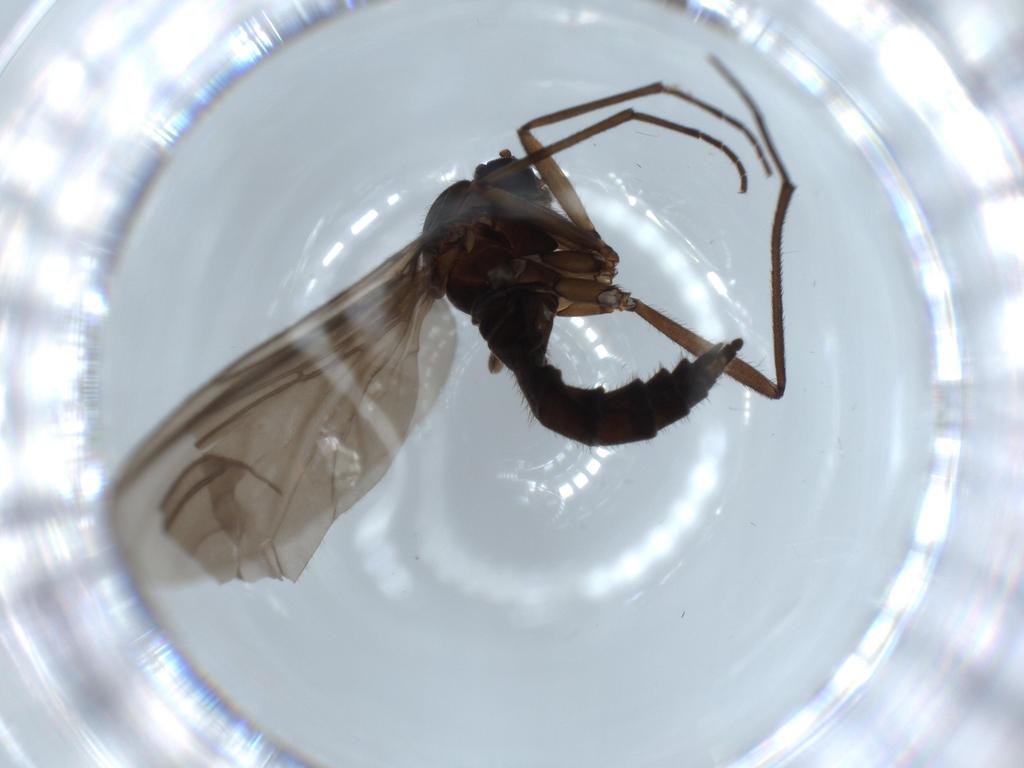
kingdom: Animalia
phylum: Arthropoda
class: Insecta
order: Diptera
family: Sciaridae
